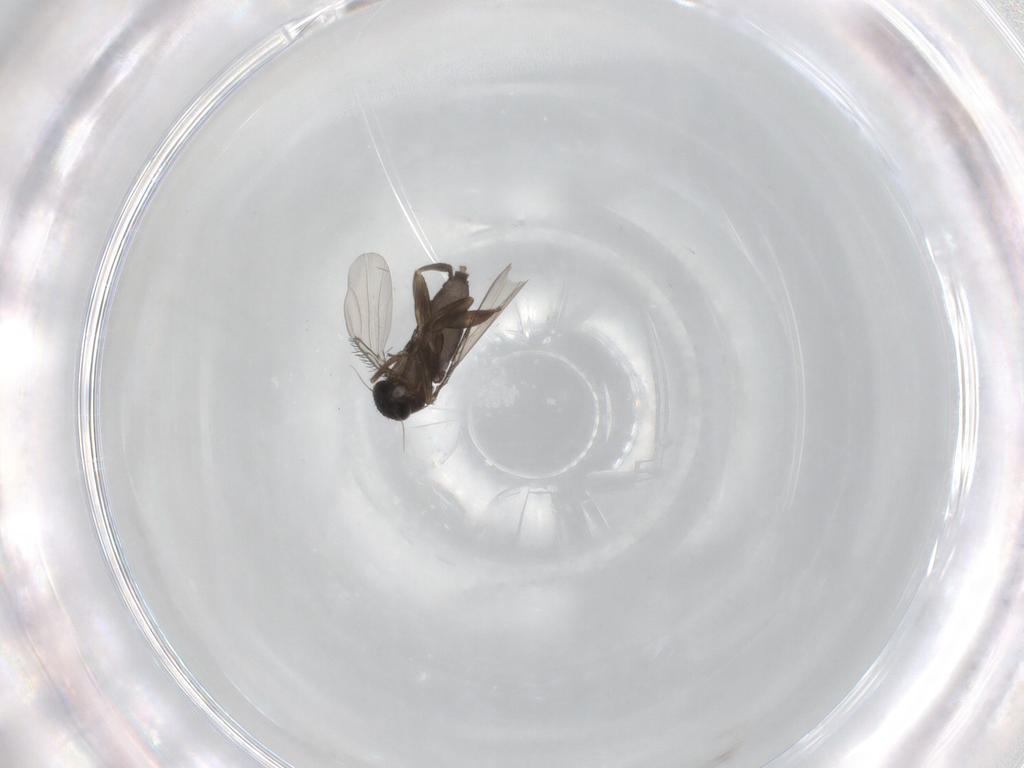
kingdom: Animalia
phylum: Arthropoda
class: Insecta
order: Diptera
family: Phoridae
